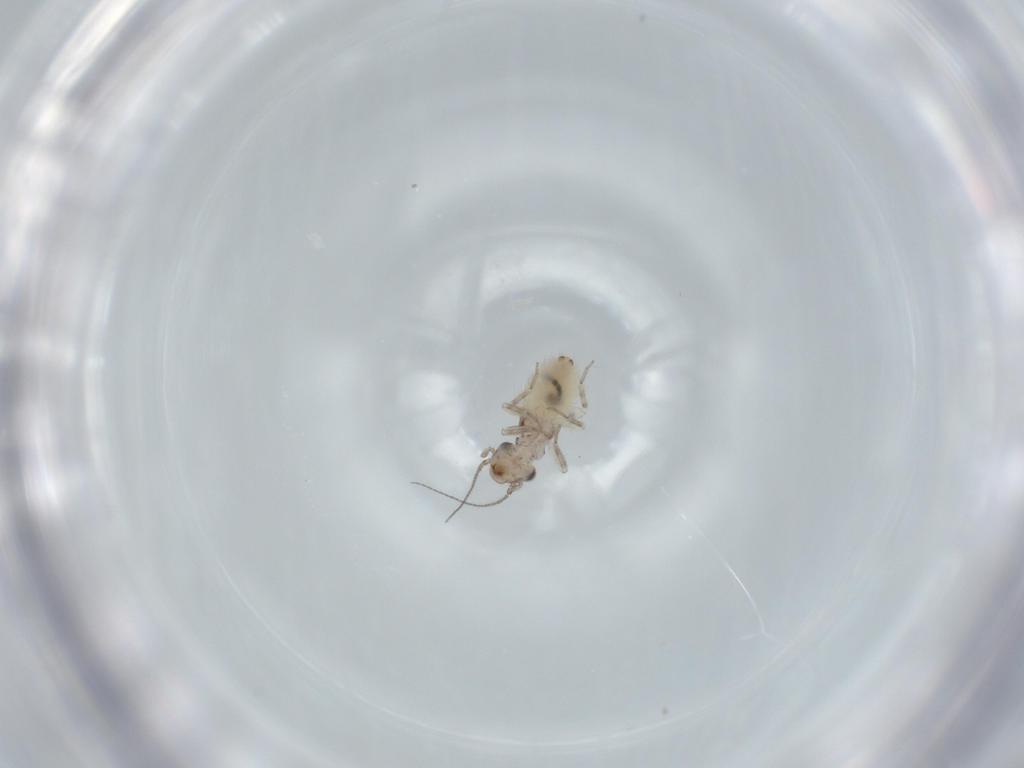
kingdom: Animalia
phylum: Arthropoda
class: Insecta
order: Psocodea
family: Lepidopsocidae
